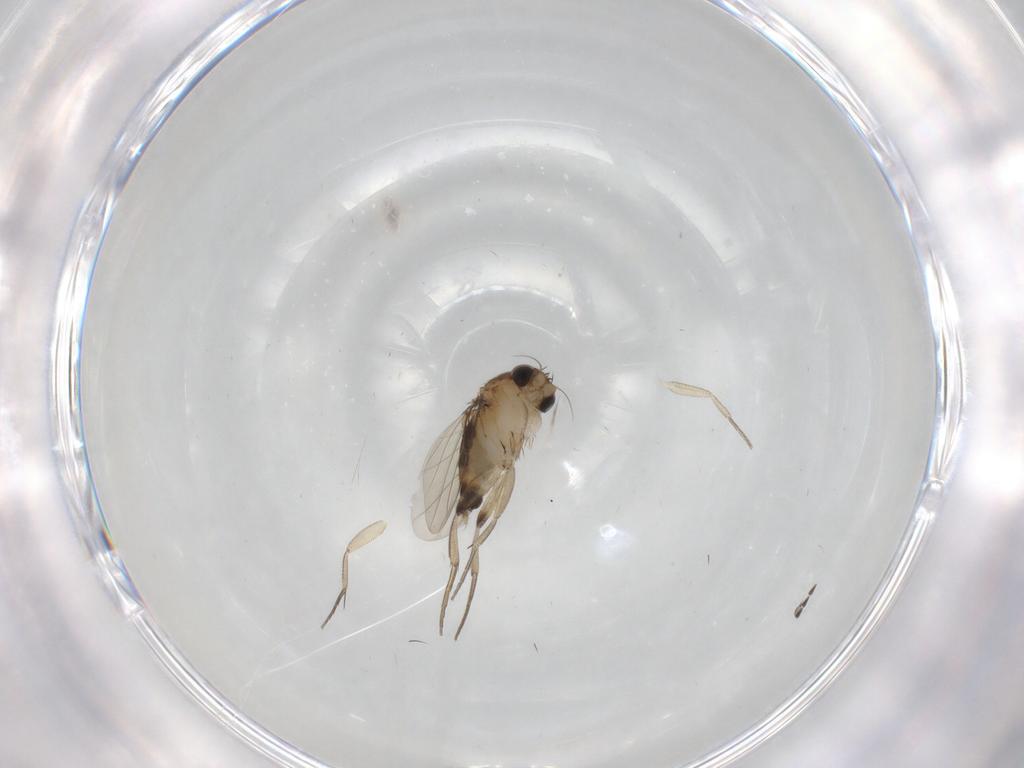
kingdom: Animalia
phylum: Arthropoda
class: Insecta
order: Diptera
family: Phoridae
